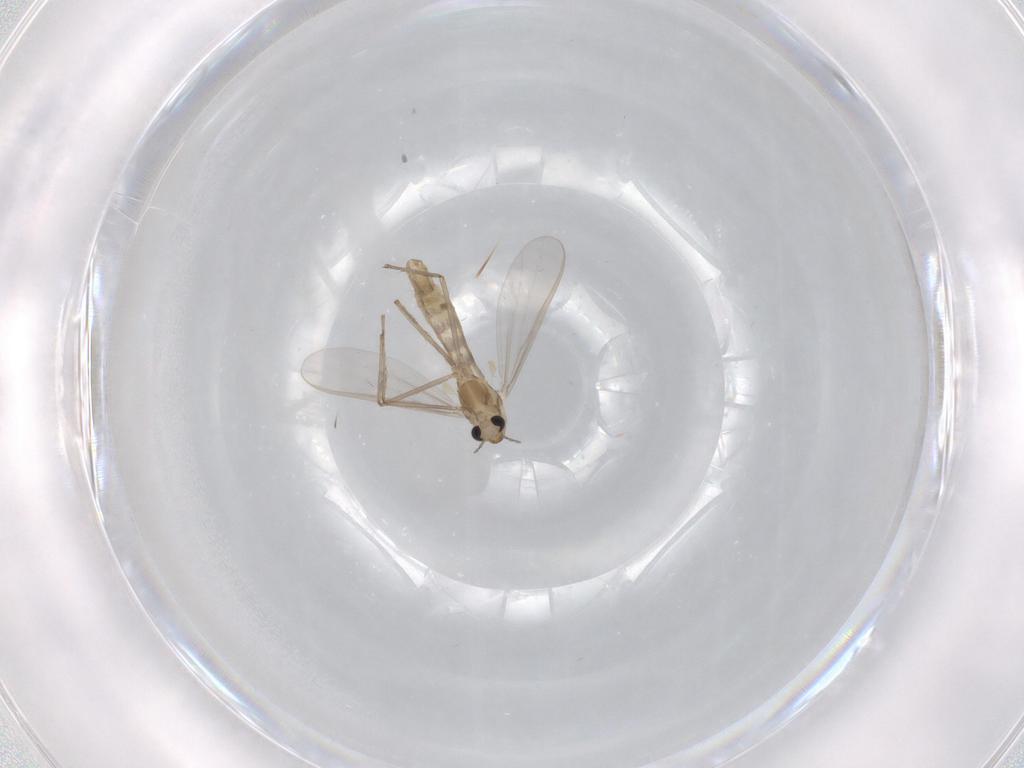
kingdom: Animalia
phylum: Arthropoda
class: Insecta
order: Diptera
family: Chironomidae
